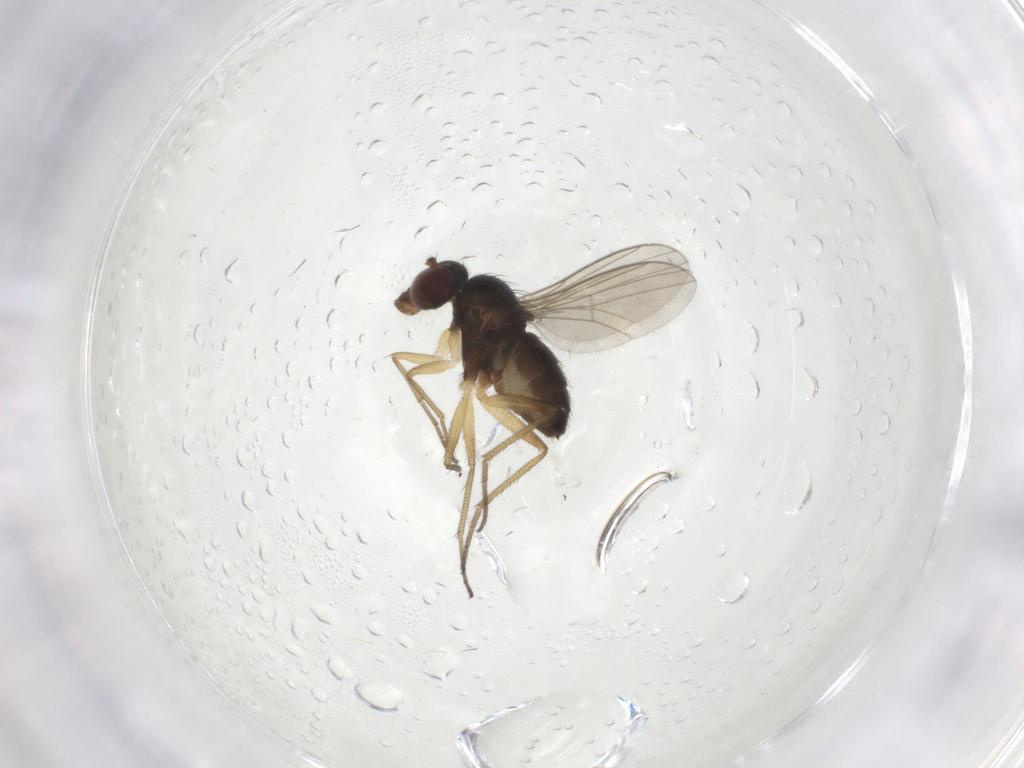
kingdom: Animalia
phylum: Arthropoda
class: Insecta
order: Diptera
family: Dolichopodidae
